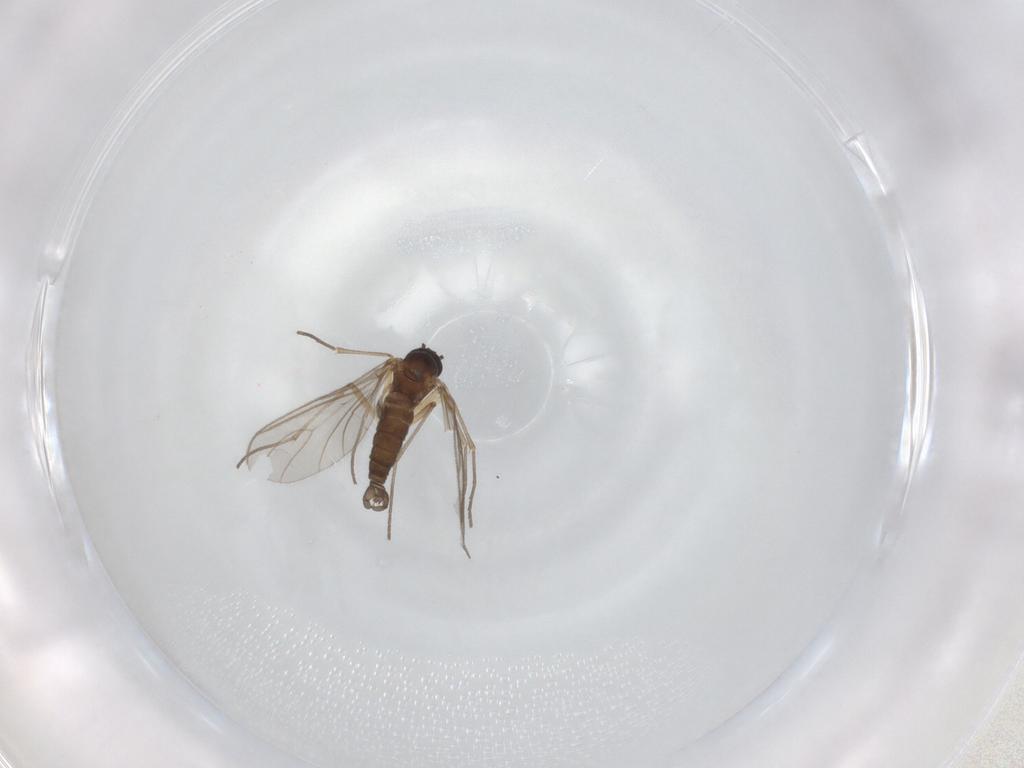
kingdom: Animalia
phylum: Arthropoda
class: Insecta
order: Diptera
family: Sciaridae
